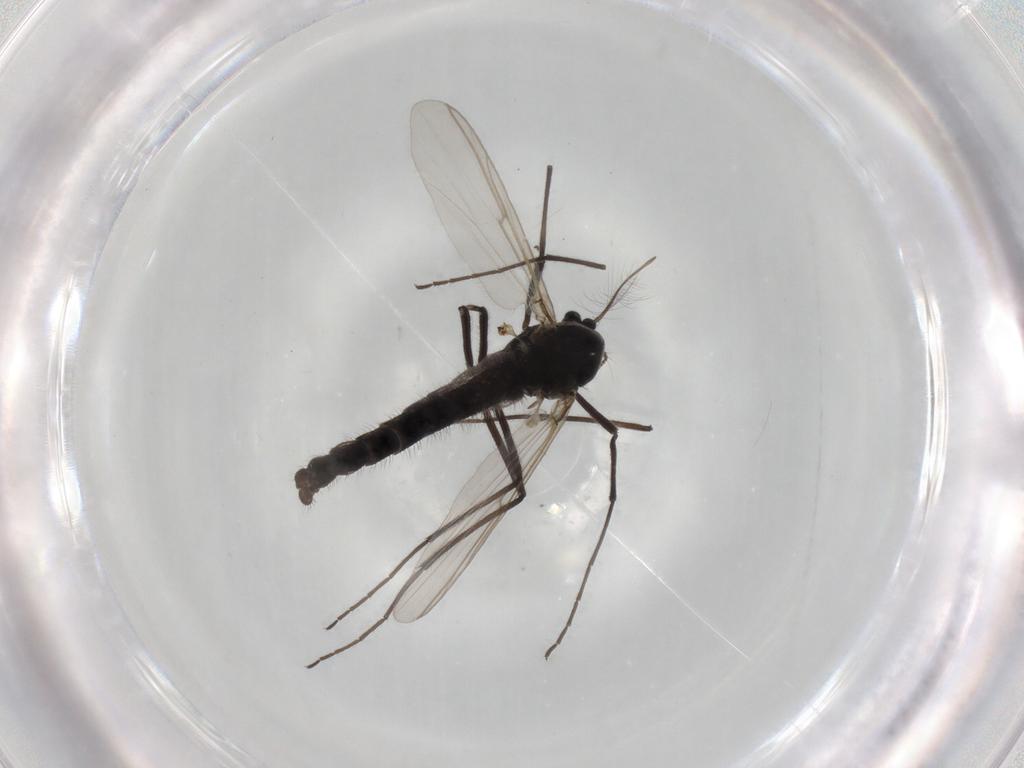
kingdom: Animalia
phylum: Arthropoda
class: Insecta
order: Diptera
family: Chironomidae
